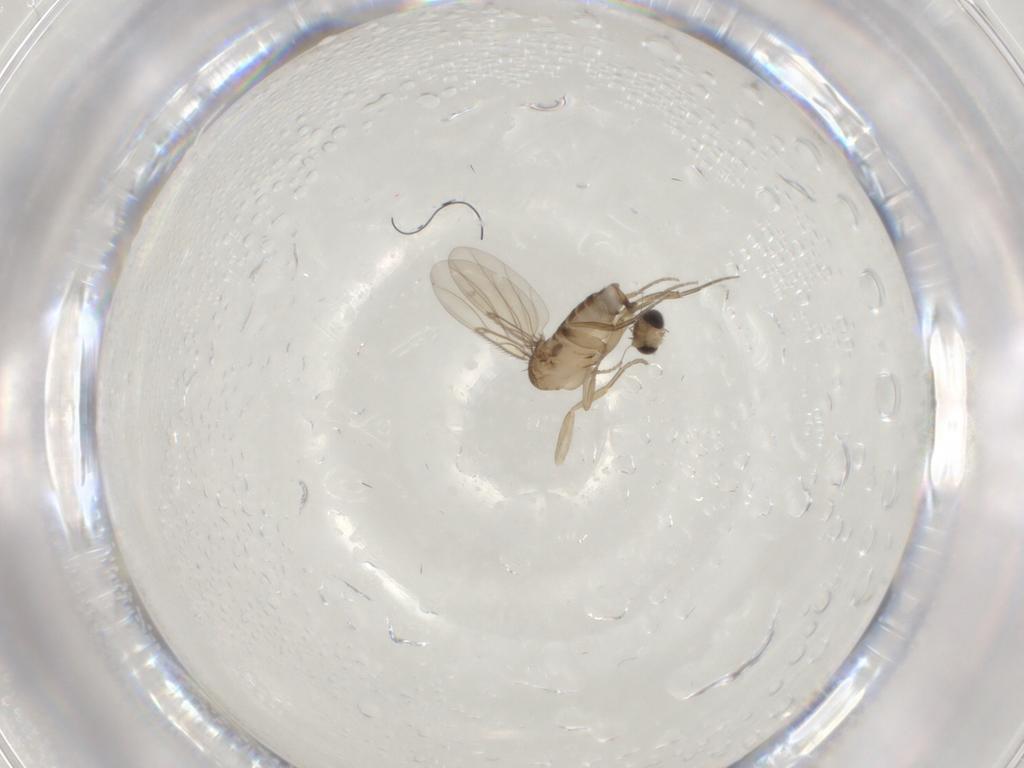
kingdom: Animalia
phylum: Arthropoda
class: Insecta
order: Diptera
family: Phoridae
